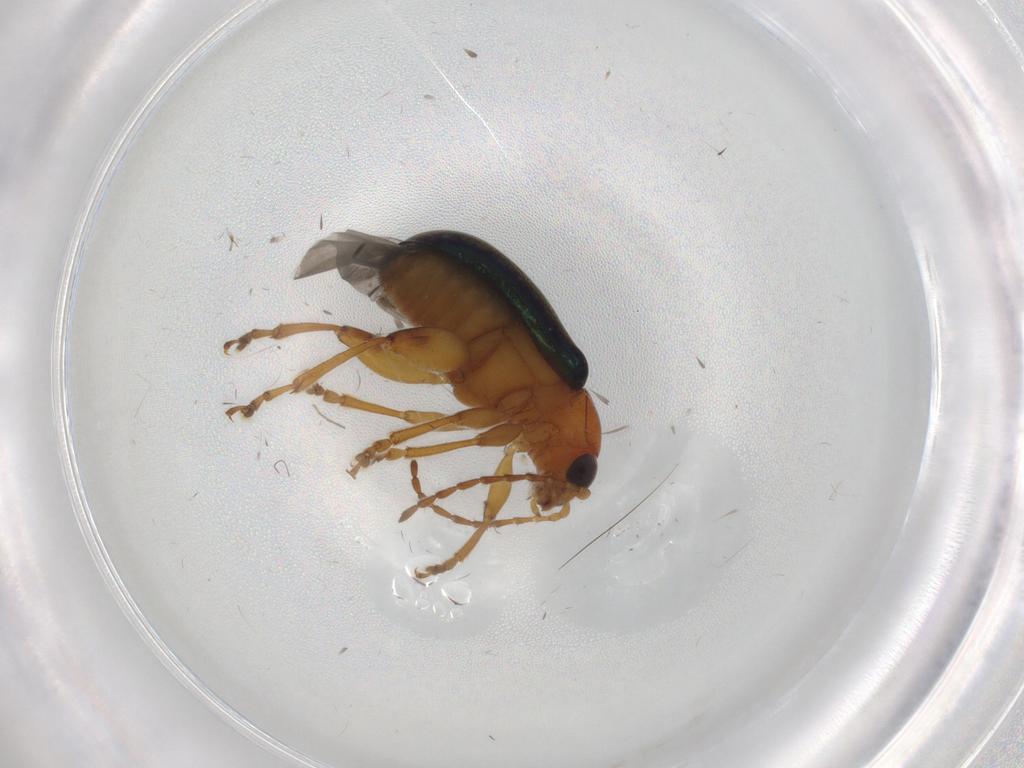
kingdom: Animalia
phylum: Arthropoda
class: Insecta
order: Coleoptera
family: Chrysomelidae
